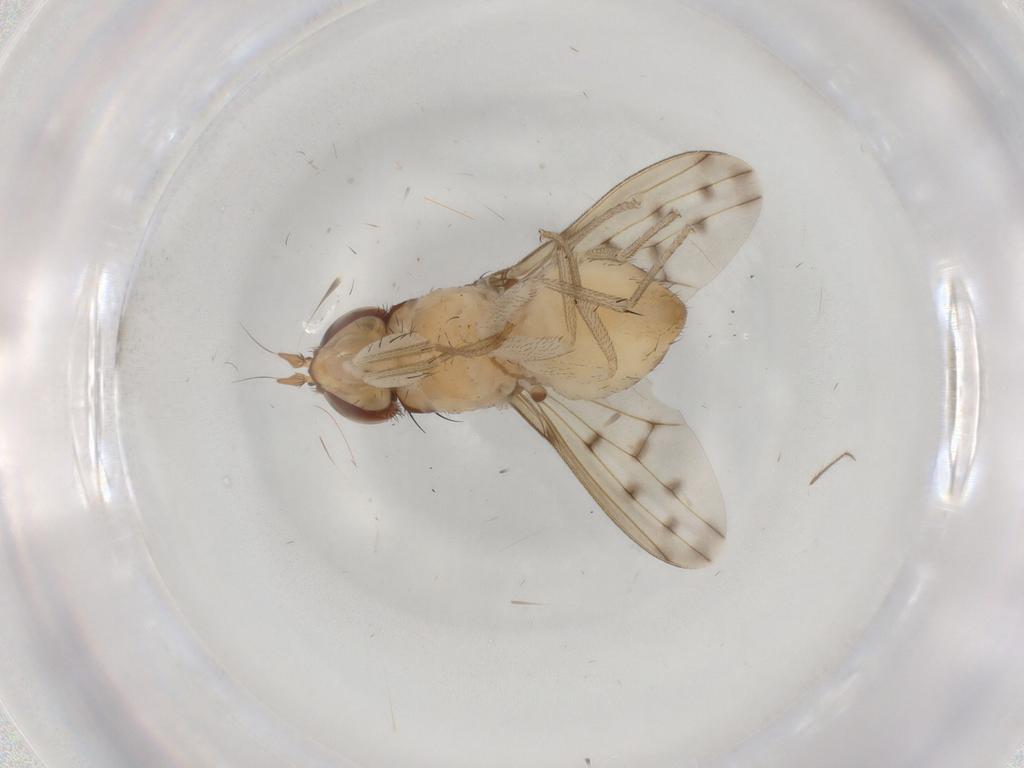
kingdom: Animalia
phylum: Arthropoda
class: Insecta
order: Diptera
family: Lauxaniidae
